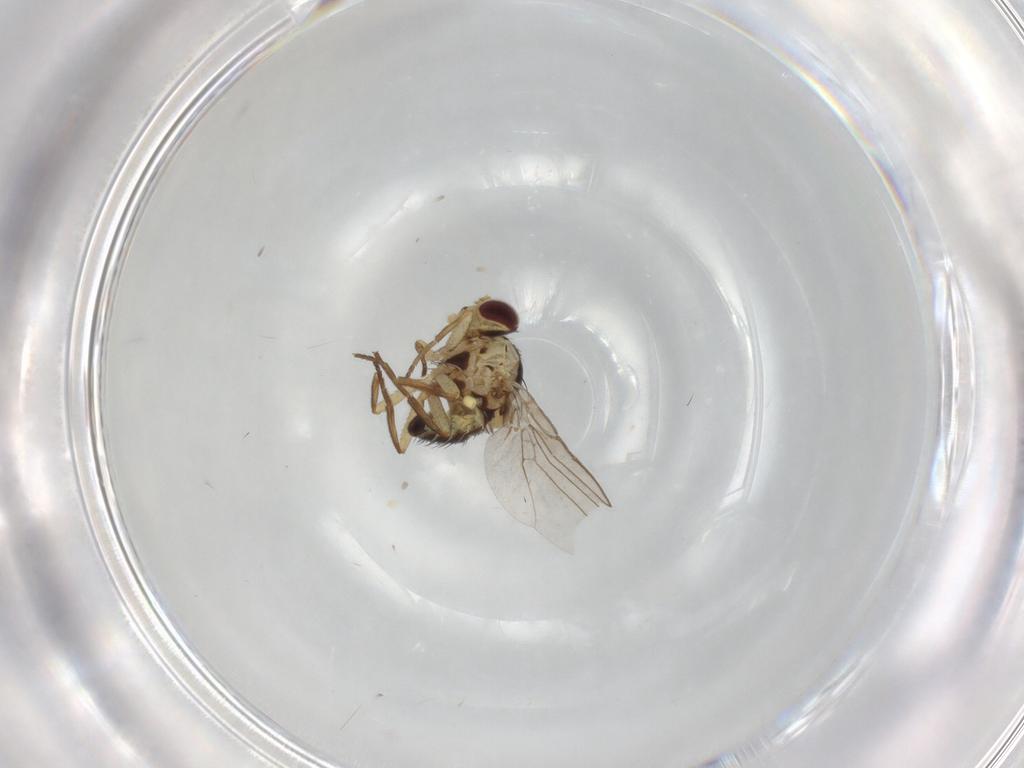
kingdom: Animalia
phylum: Arthropoda
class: Insecta
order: Diptera
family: Agromyzidae
